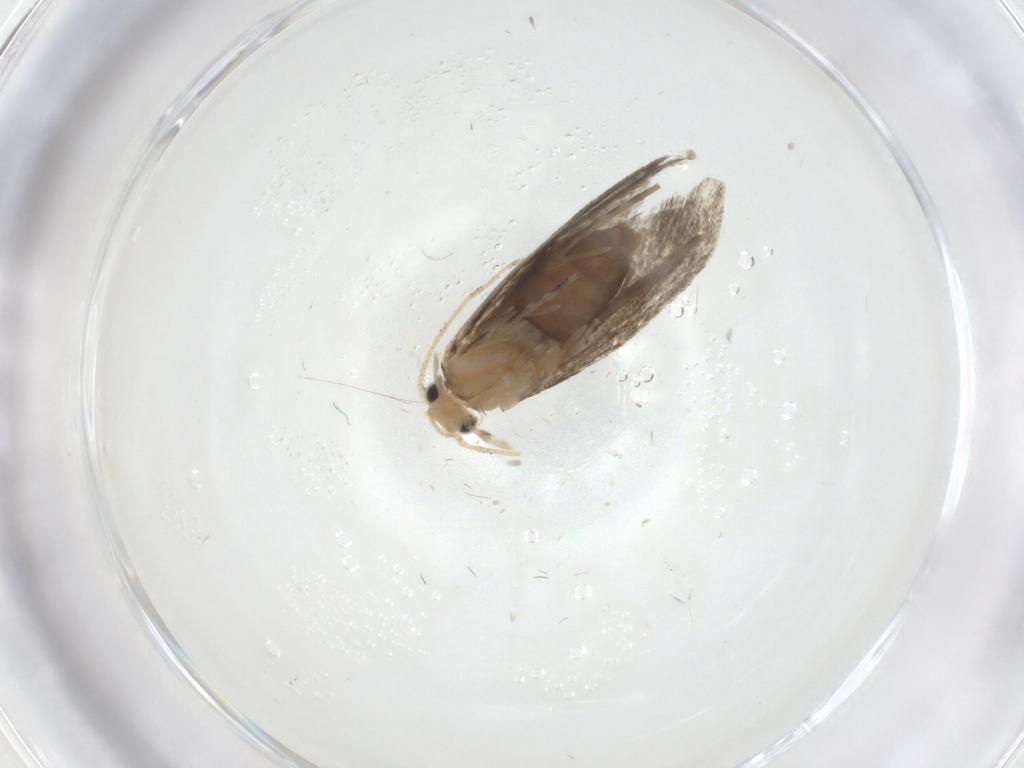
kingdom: Animalia
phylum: Arthropoda
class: Insecta
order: Lepidoptera
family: Tineidae
